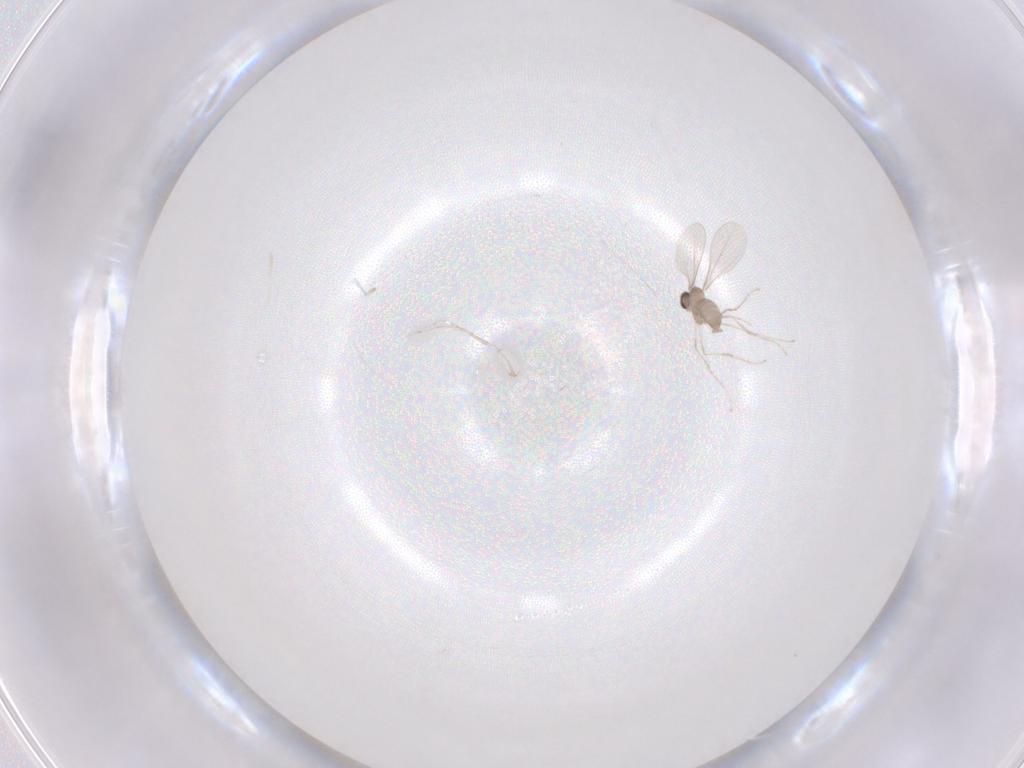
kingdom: Animalia
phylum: Arthropoda
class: Insecta
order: Diptera
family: Cecidomyiidae
